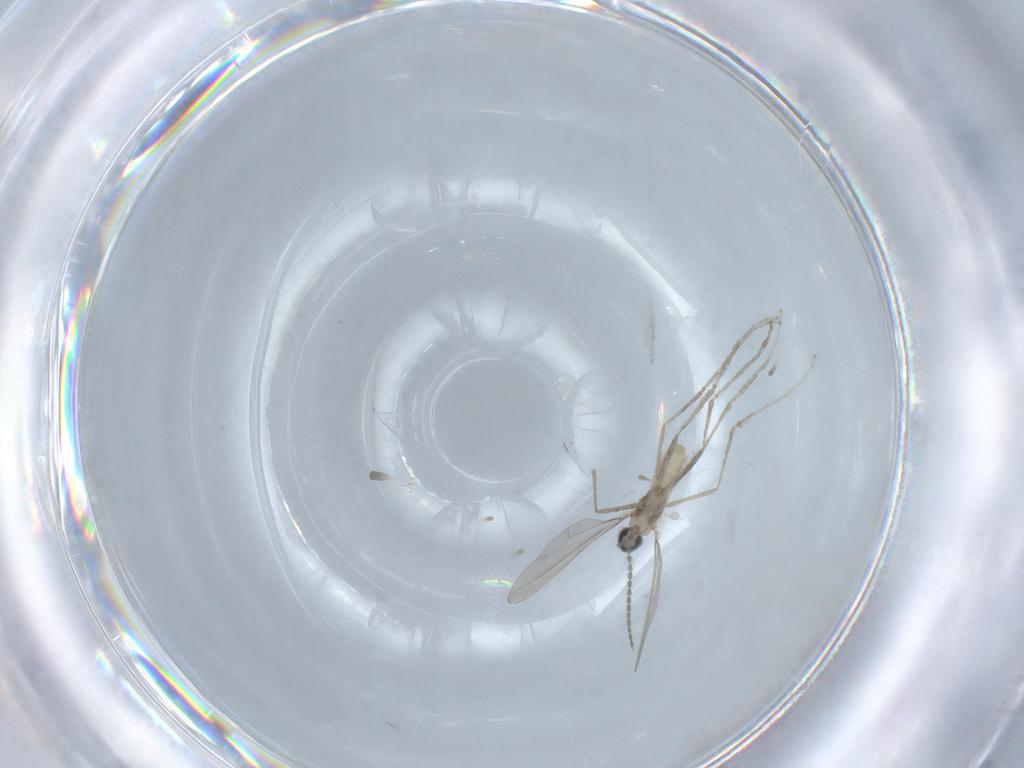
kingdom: Animalia
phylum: Arthropoda
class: Insecta
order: Diptera
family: Cecidomyiidae
